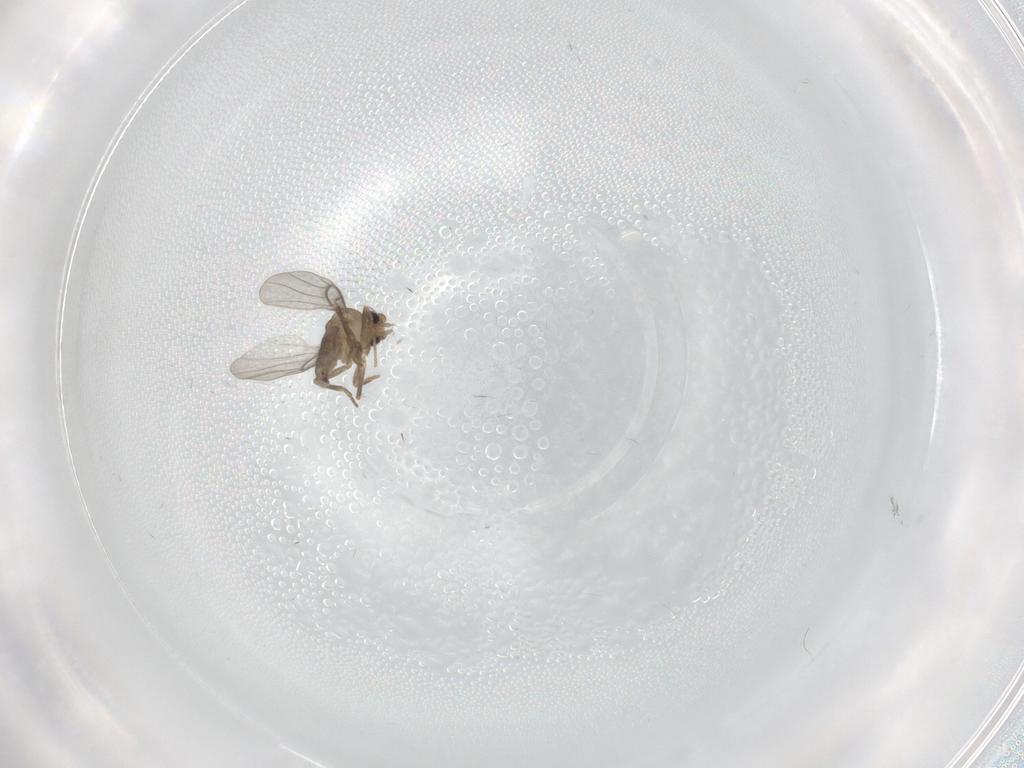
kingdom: Animalia
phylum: Arthropoda
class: Insecta
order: Diptera
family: Cecidomyiidae
